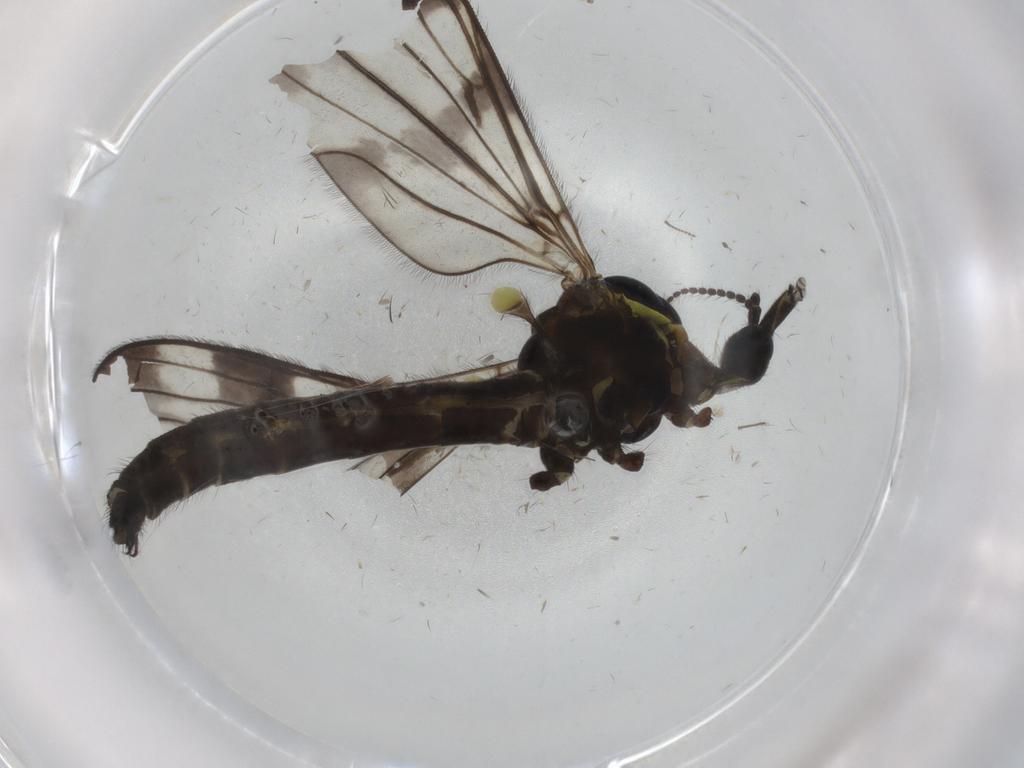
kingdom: Animalia
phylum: Arthropoda
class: Insecta
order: Diptera
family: Limoniidae
